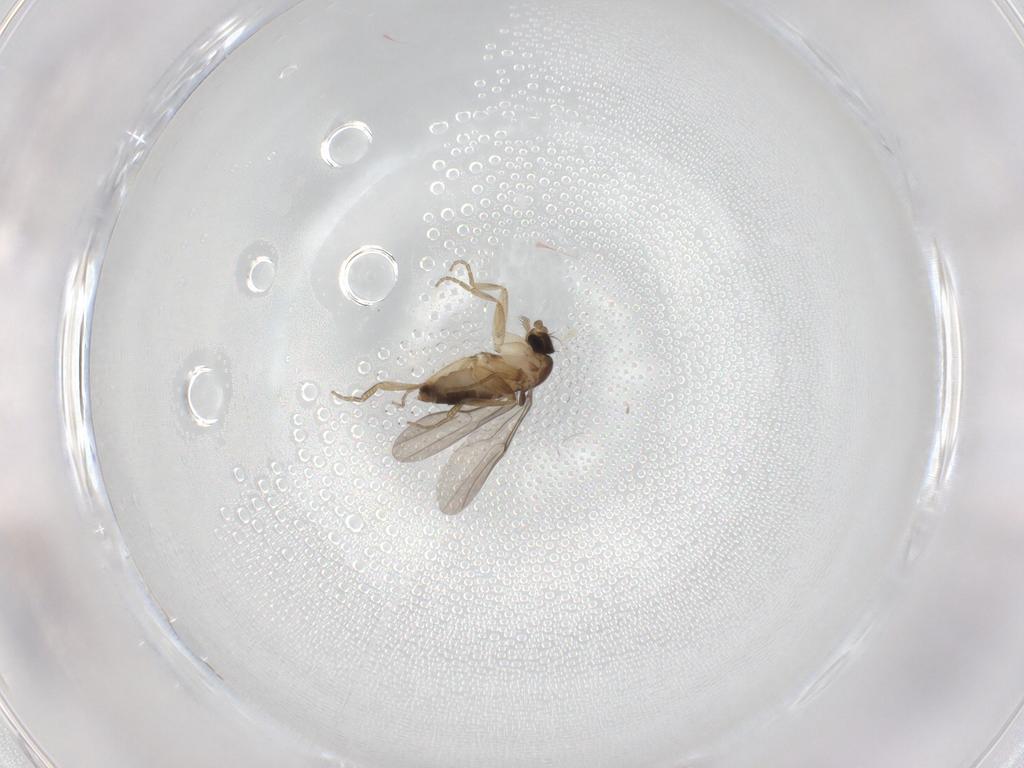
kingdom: Animalia
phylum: Arthropoda
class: Insecta
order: Diptera
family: Phoridae
